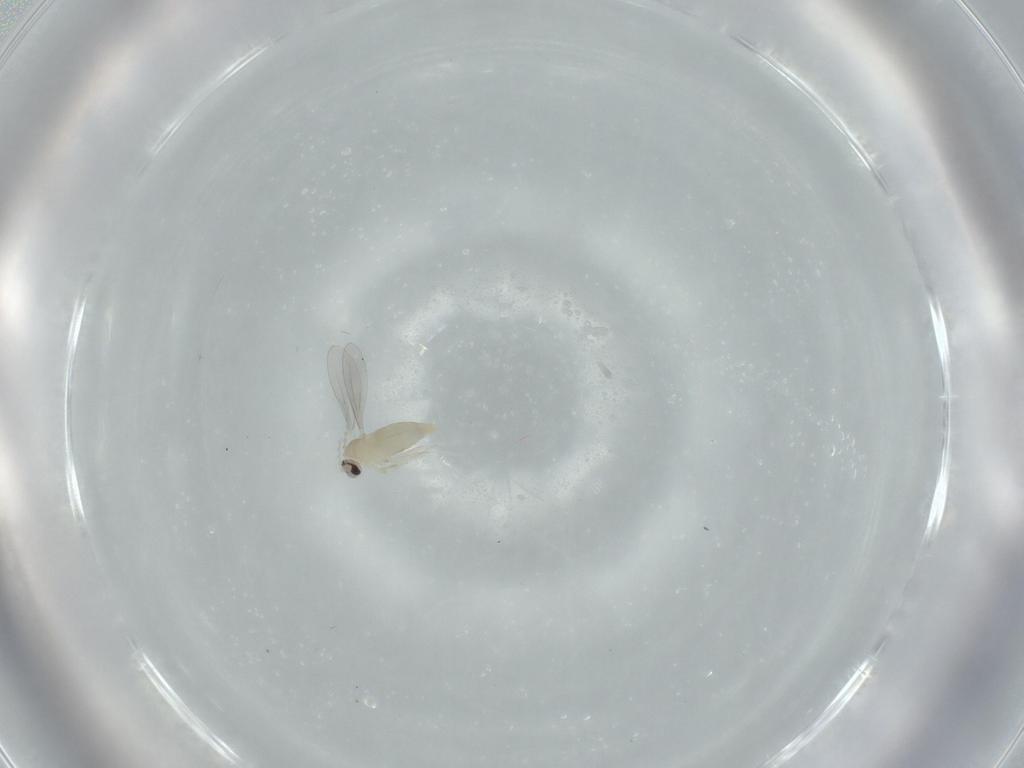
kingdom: Animalia
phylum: Arthropoda
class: Insecta
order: Diptera
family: Cecidomyiidae
